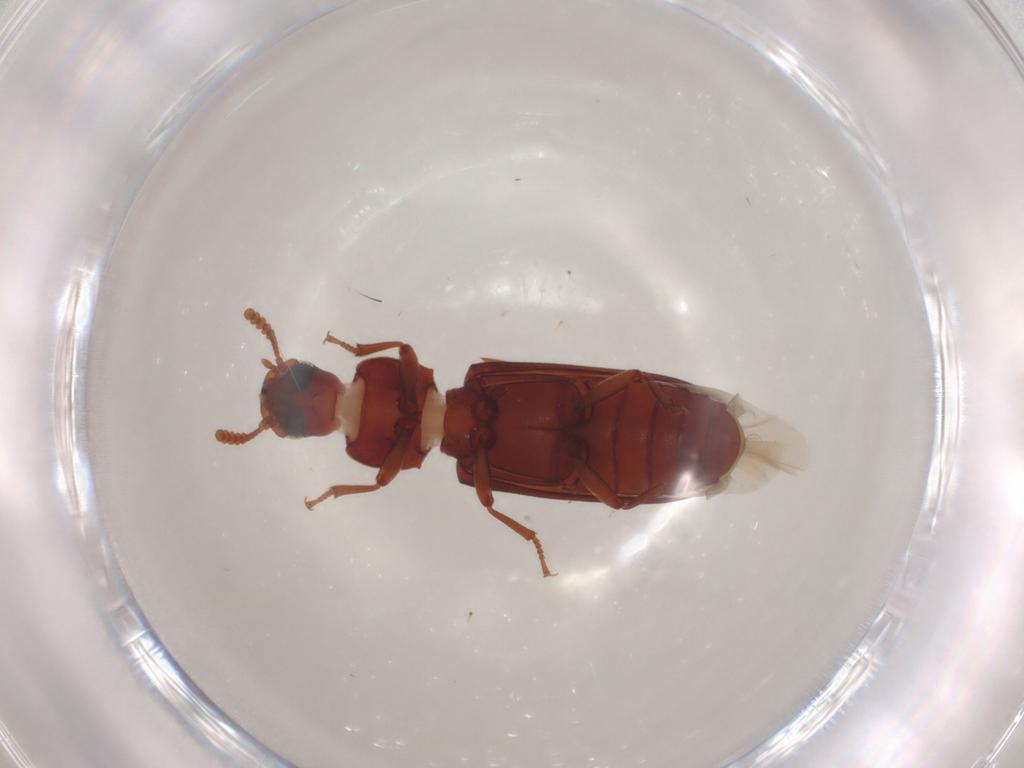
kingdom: Animalia
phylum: Arthropoda
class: Insecta
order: Coleoptera
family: Tenebrionidae
